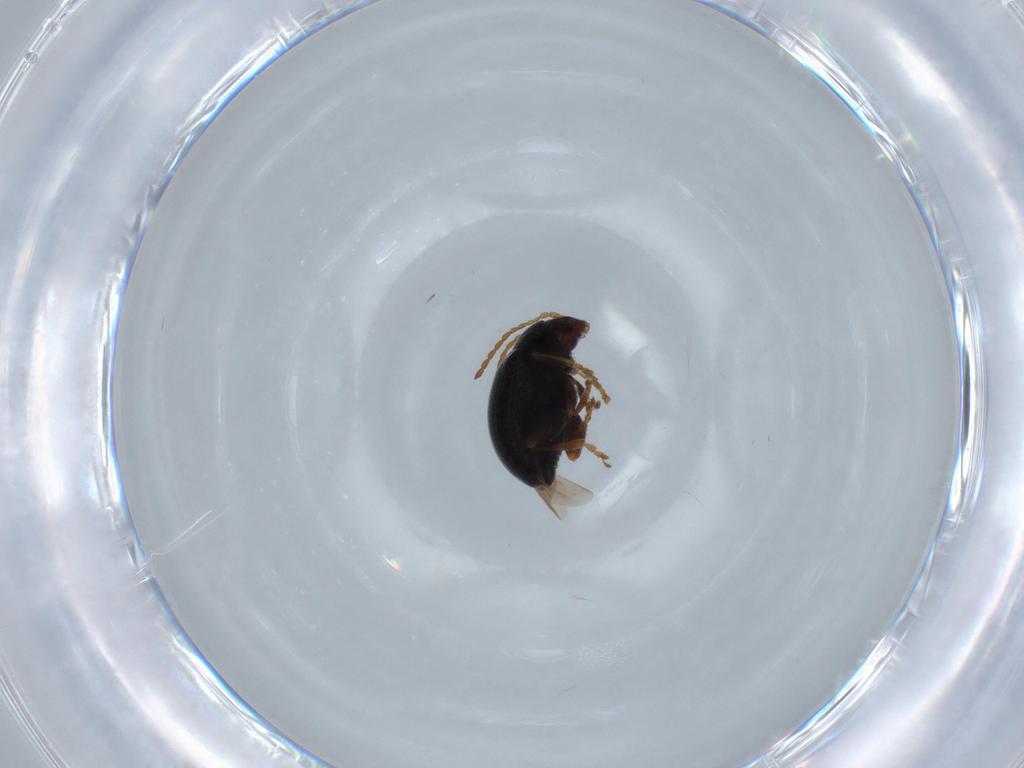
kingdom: Animalia
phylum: Arthropoda
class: Insecta
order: Coleoptera
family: Chrysomelidae
